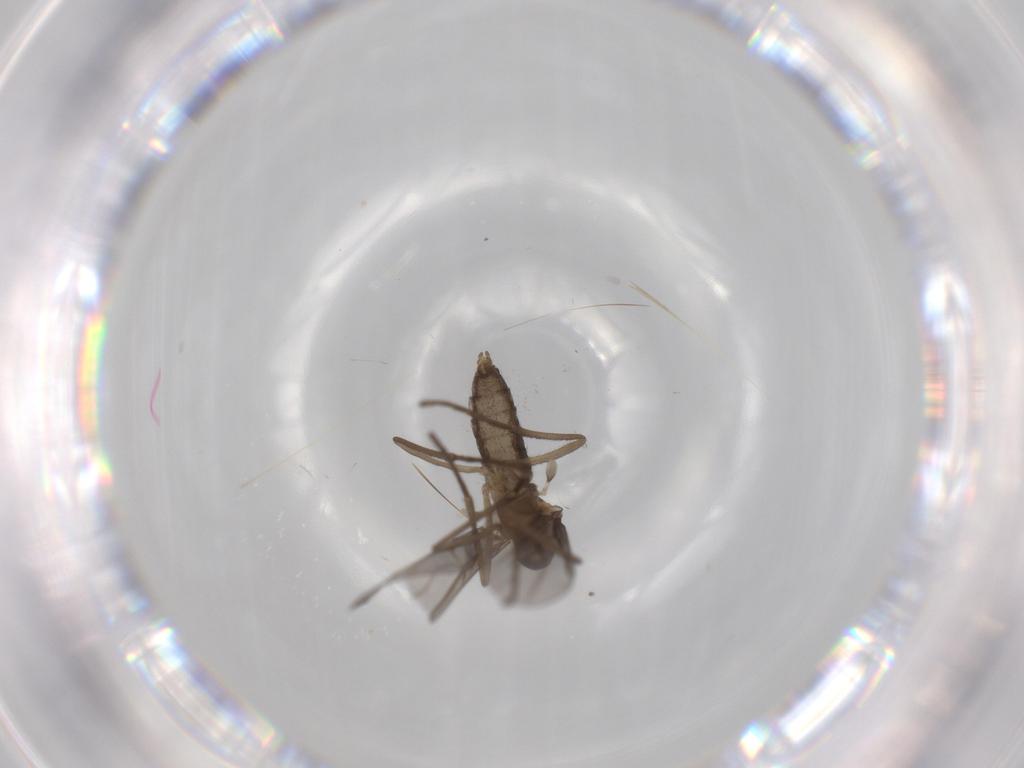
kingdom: Animalia
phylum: Arthropoda
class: Insecta
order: Diptera
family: Cecidomyiidae
